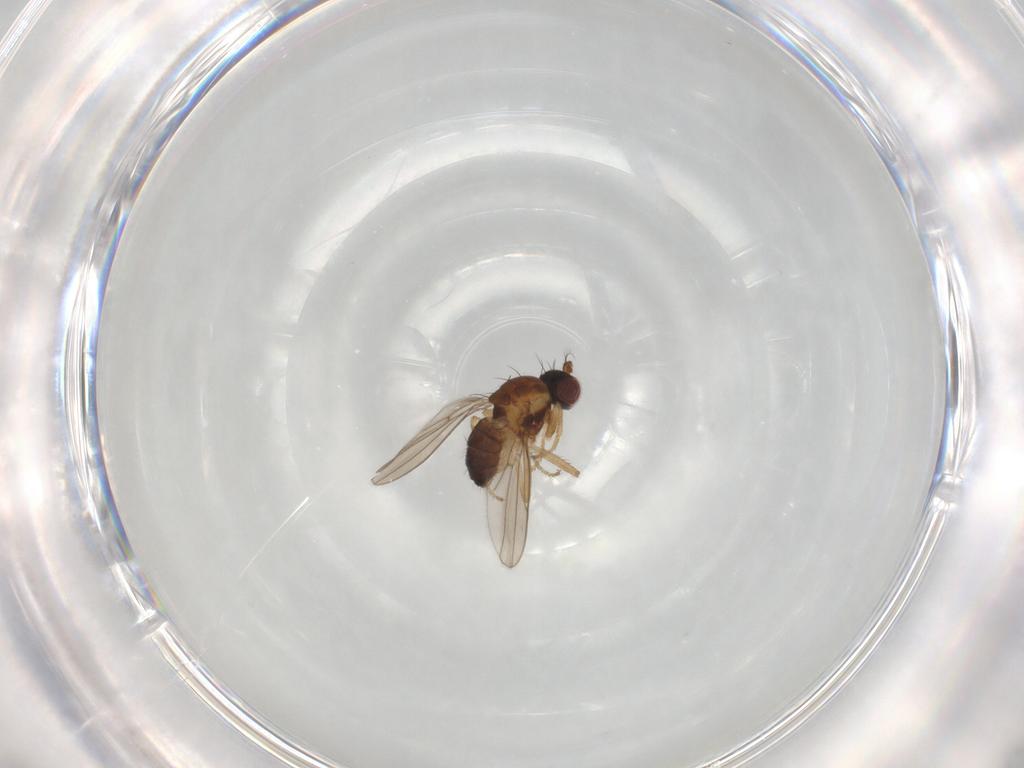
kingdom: Animalia
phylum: Arthropoda
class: Insecta
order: Diptera
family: Ephydridae
